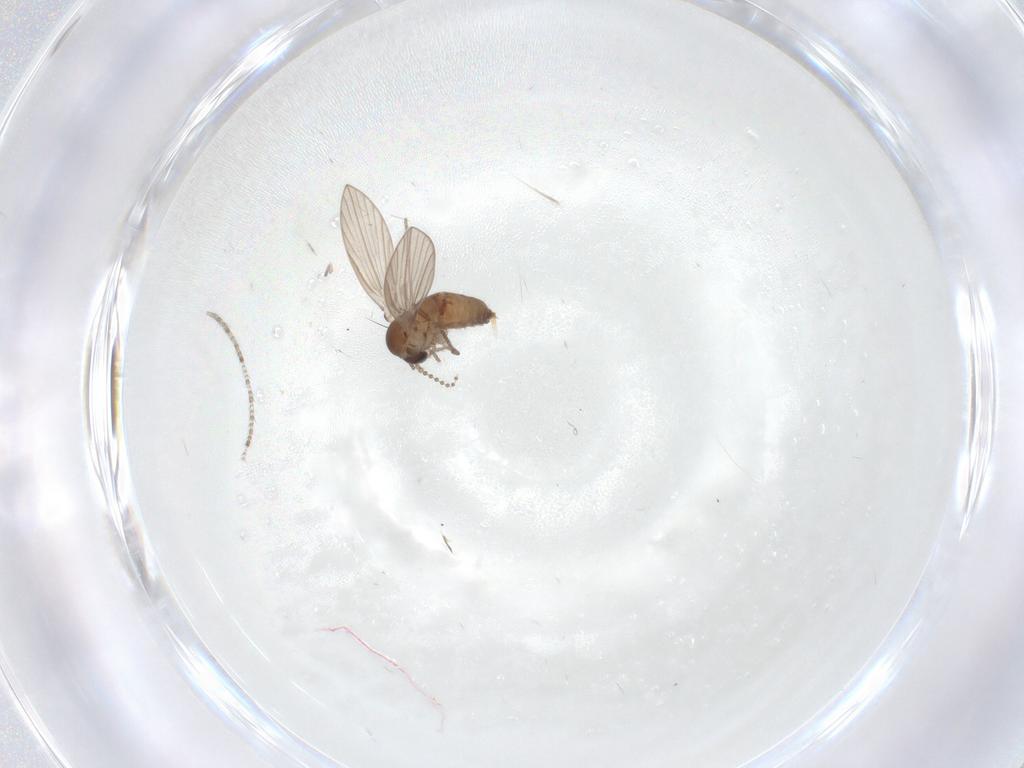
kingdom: Animalia
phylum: Arthropoda
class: Insecta
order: Diptera
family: Psychodidae
